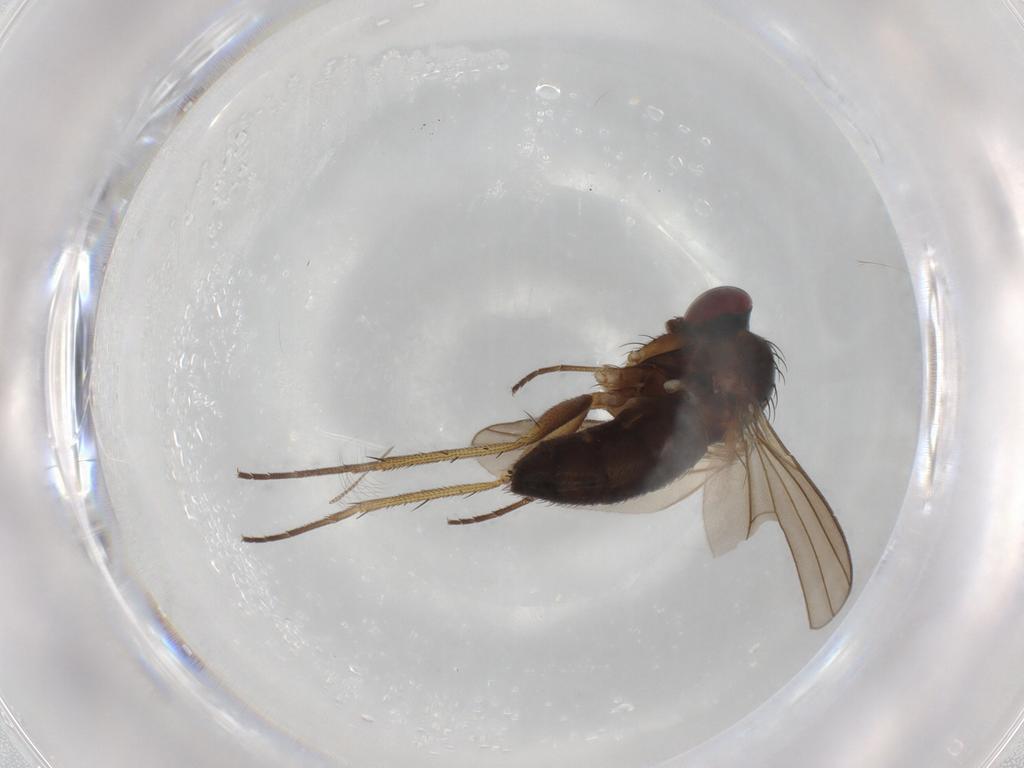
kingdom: Animalia
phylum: Arthropoda
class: Insecta
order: Diptera
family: Dolichopodidae
